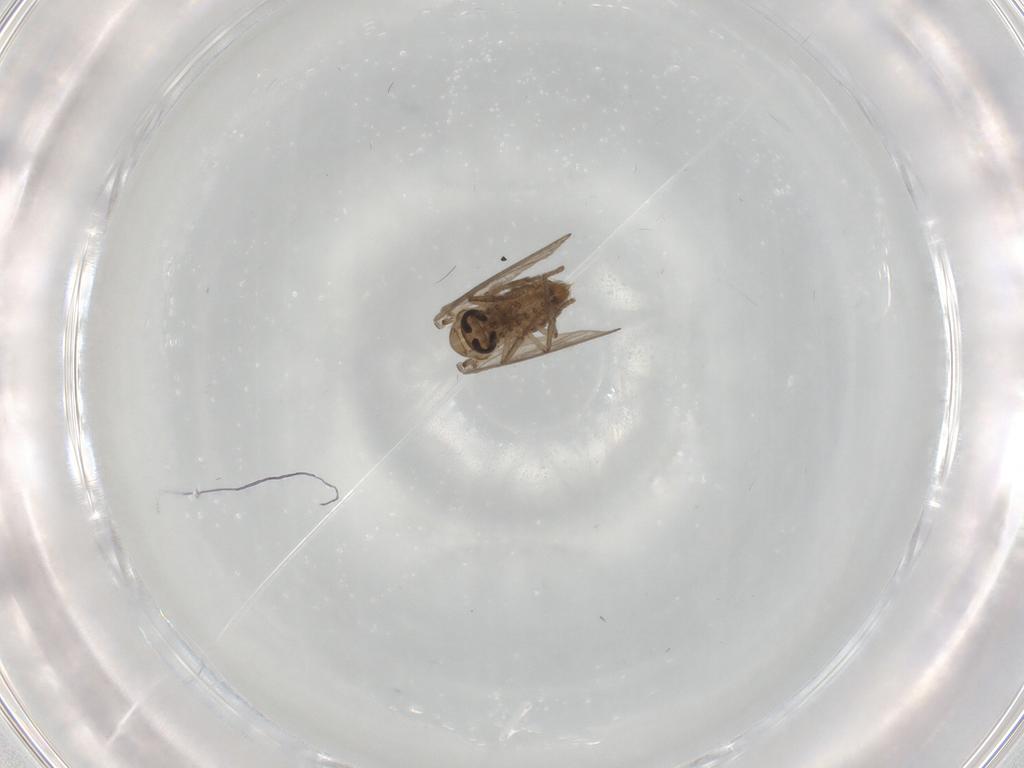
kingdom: Animalia
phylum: Arthropoda
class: Insecta
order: Diptera
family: Psychodidae
